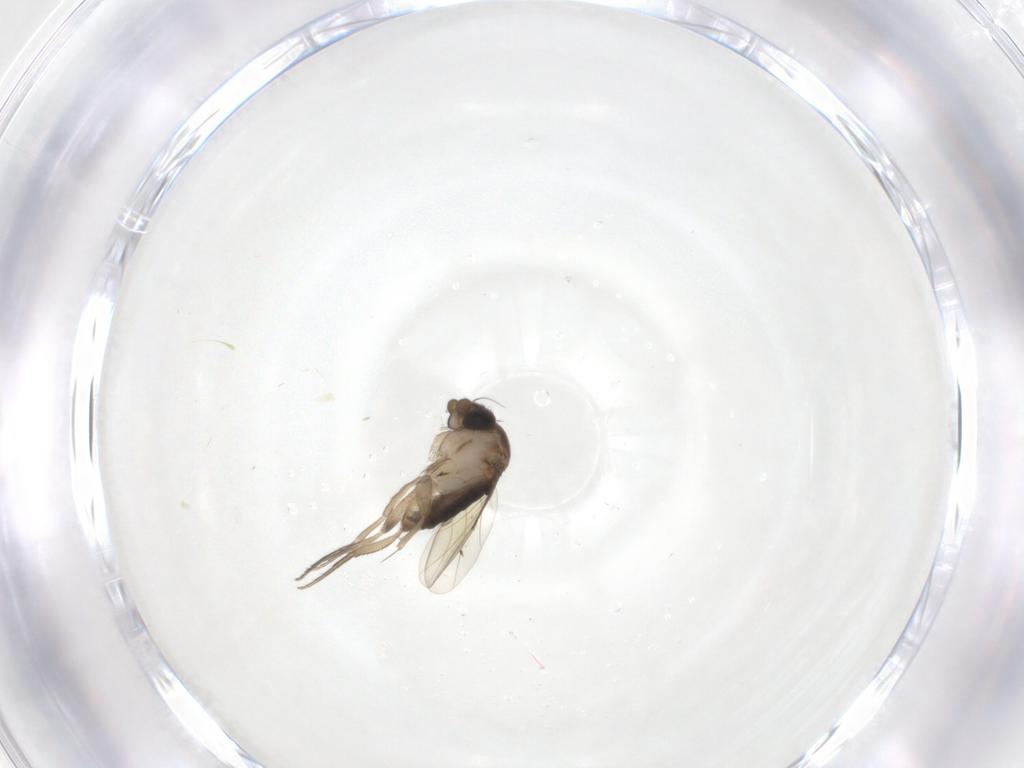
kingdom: Animalia
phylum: Arthropoda
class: Insecta
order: Diptera
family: Phoridae
